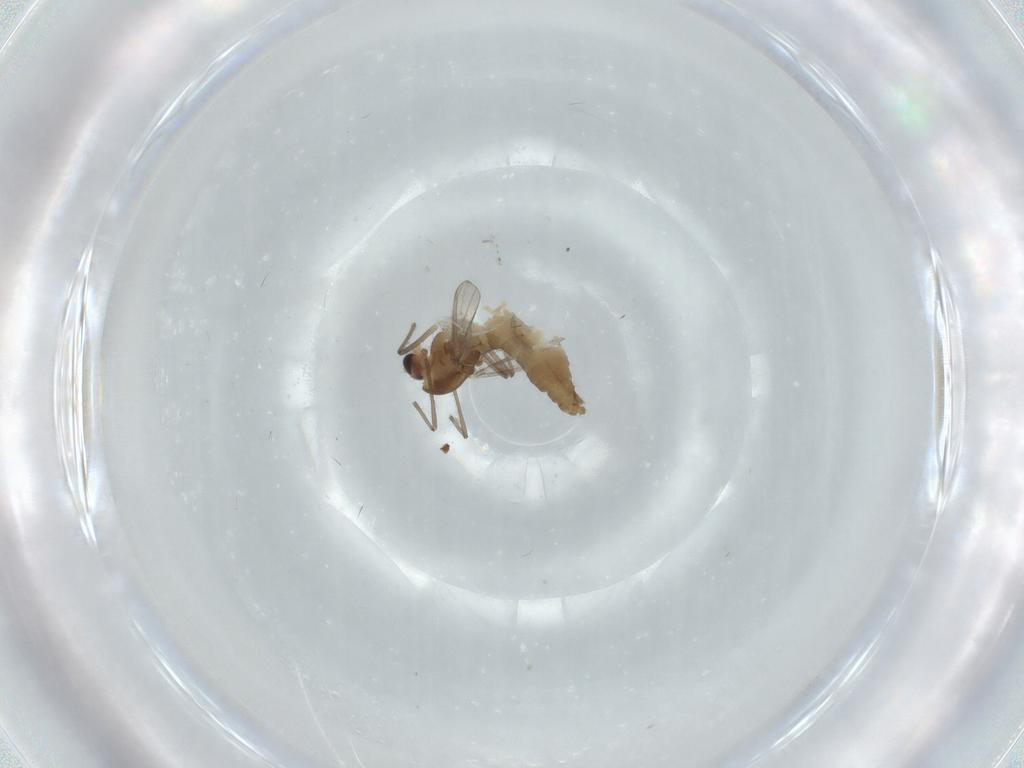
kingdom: Animalia
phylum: Arthropoda
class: Insecta
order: Diptera
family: Chironomidae
